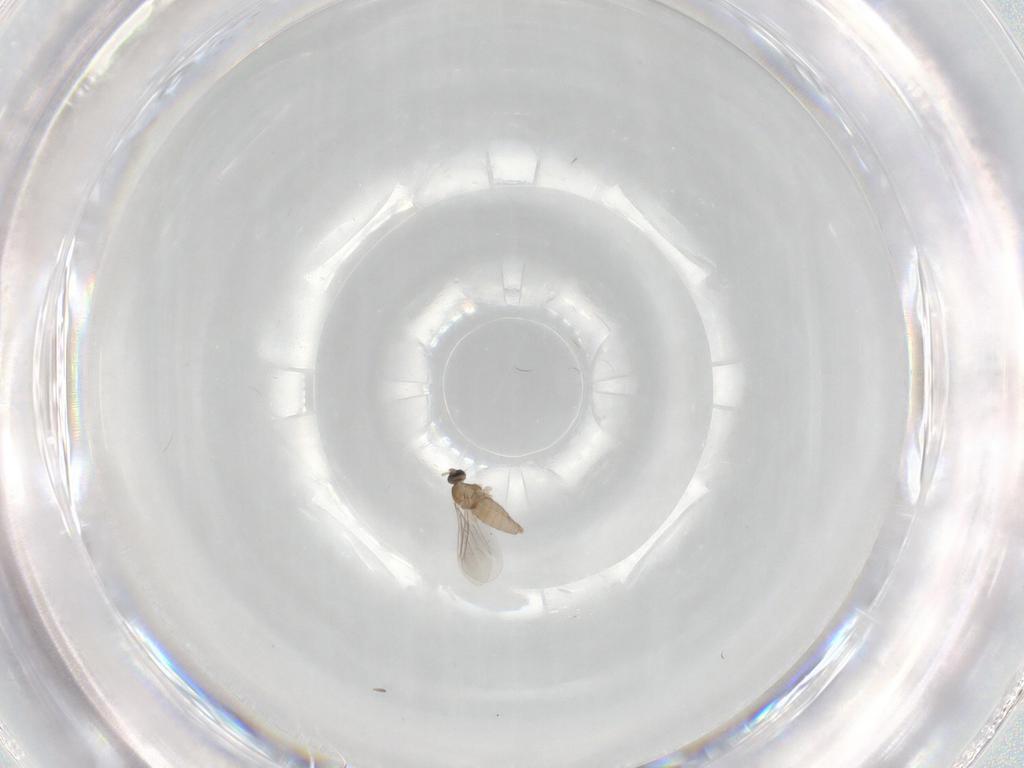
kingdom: Animalia
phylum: Arthropoda
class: Insecta
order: Diptera
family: Cecidomyiidae
